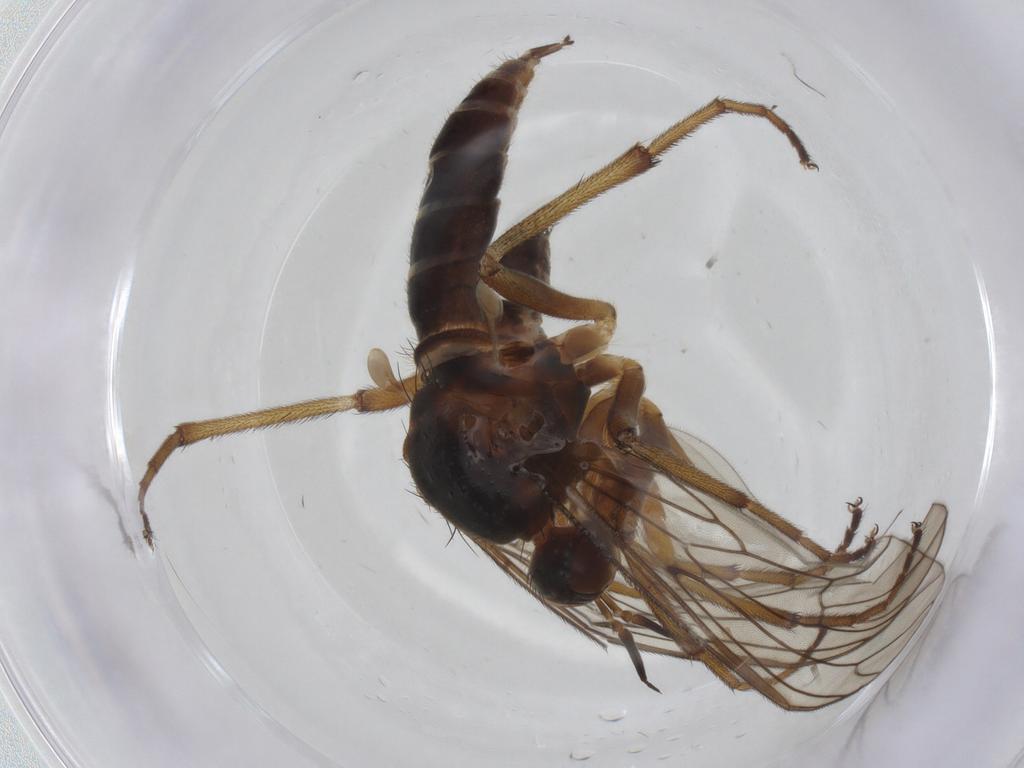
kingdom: Animalia
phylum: Arthropoda
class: Insecta
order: Diptera
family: Empididae
